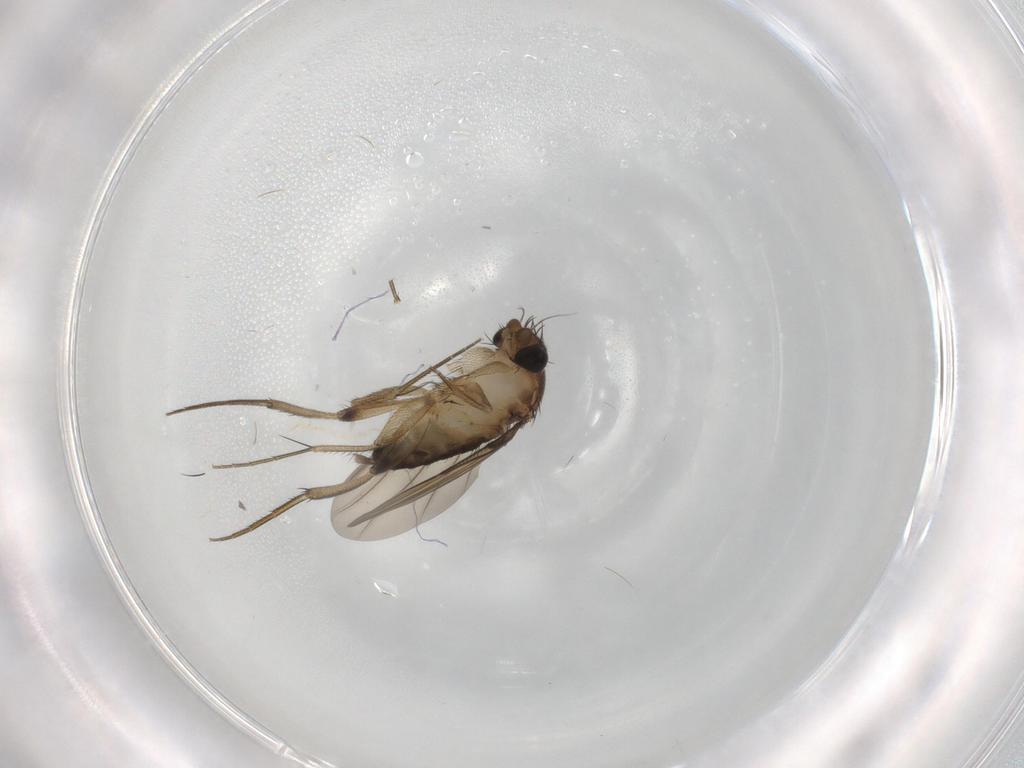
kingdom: Animalia
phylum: Arthropoda
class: Insecta
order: Diptera
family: Phoridae
